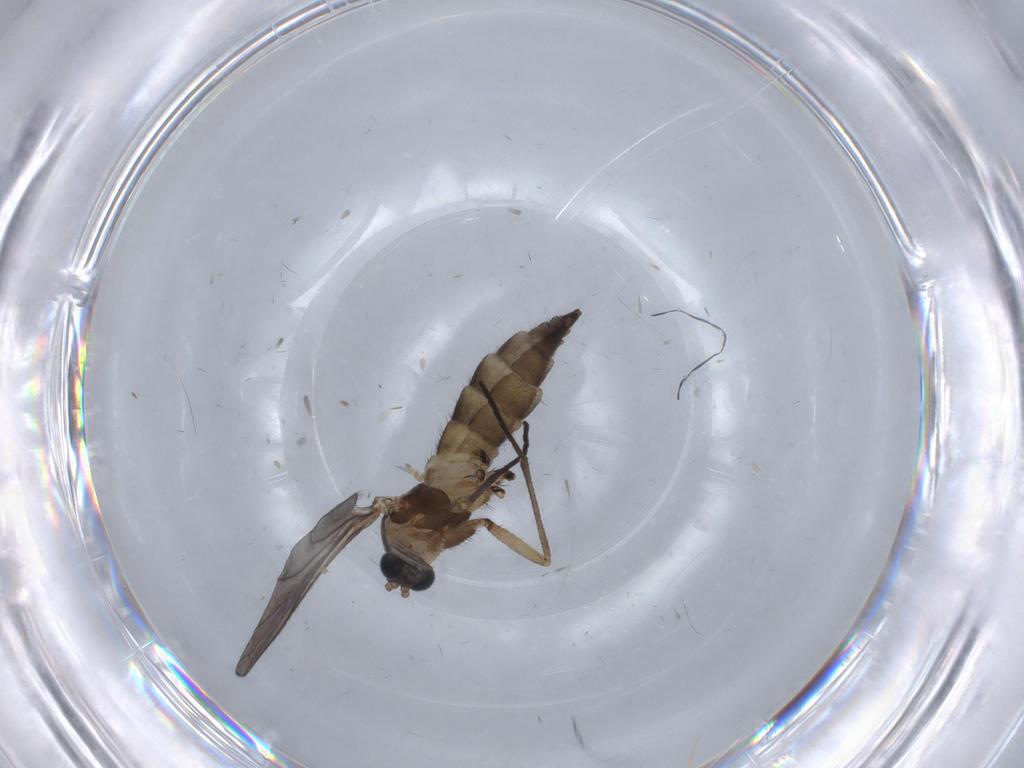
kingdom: Animalia
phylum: Arthropoda
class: Insecta
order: Diptera
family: Sciaridae
